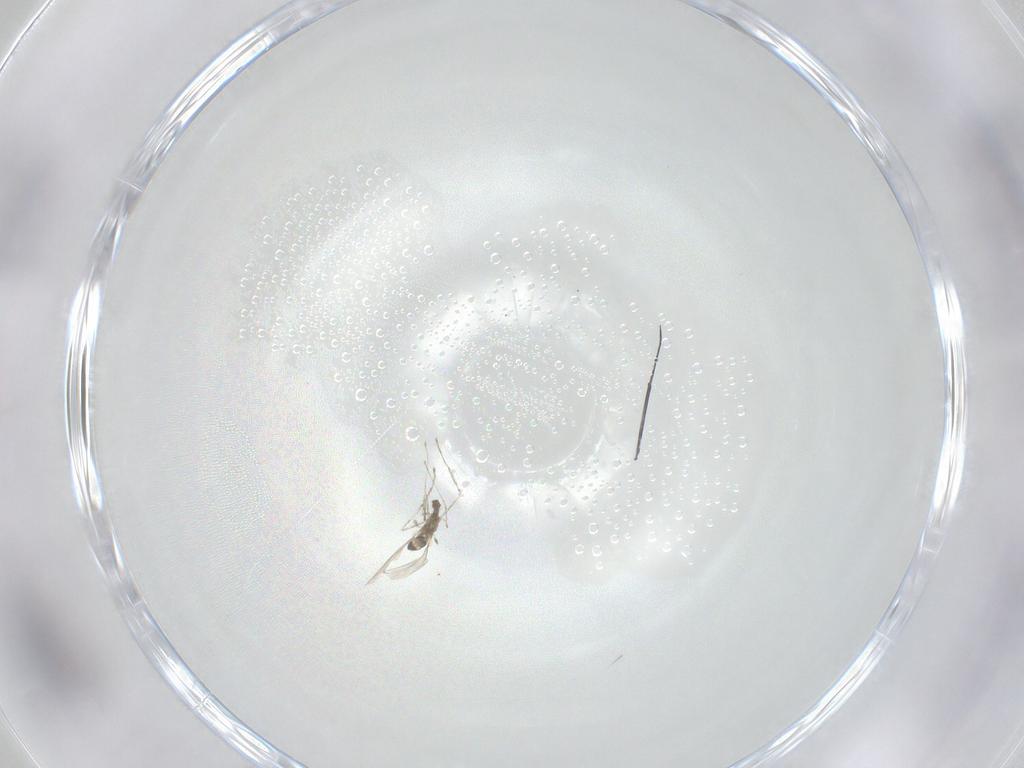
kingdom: Animalia
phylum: Arthropoda
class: Insecta
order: Diptera
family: Cecidomyiidae
